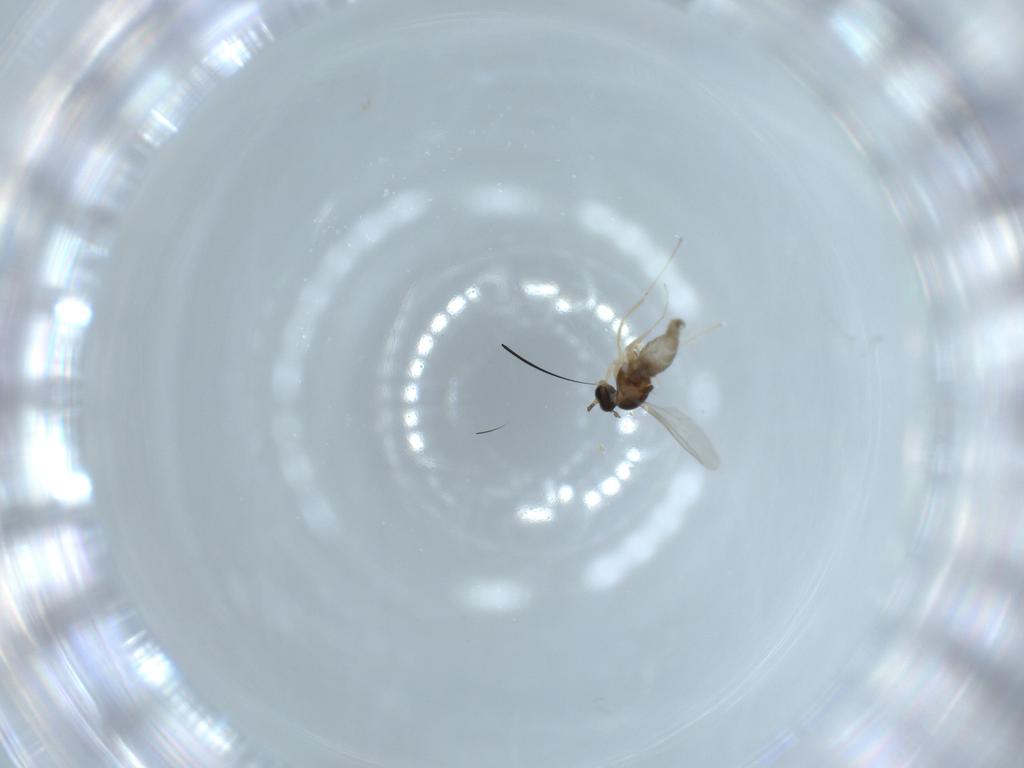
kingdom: Animalia
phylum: Arthropoda
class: Insecta
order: Diptera
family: Cecidomyiidae
